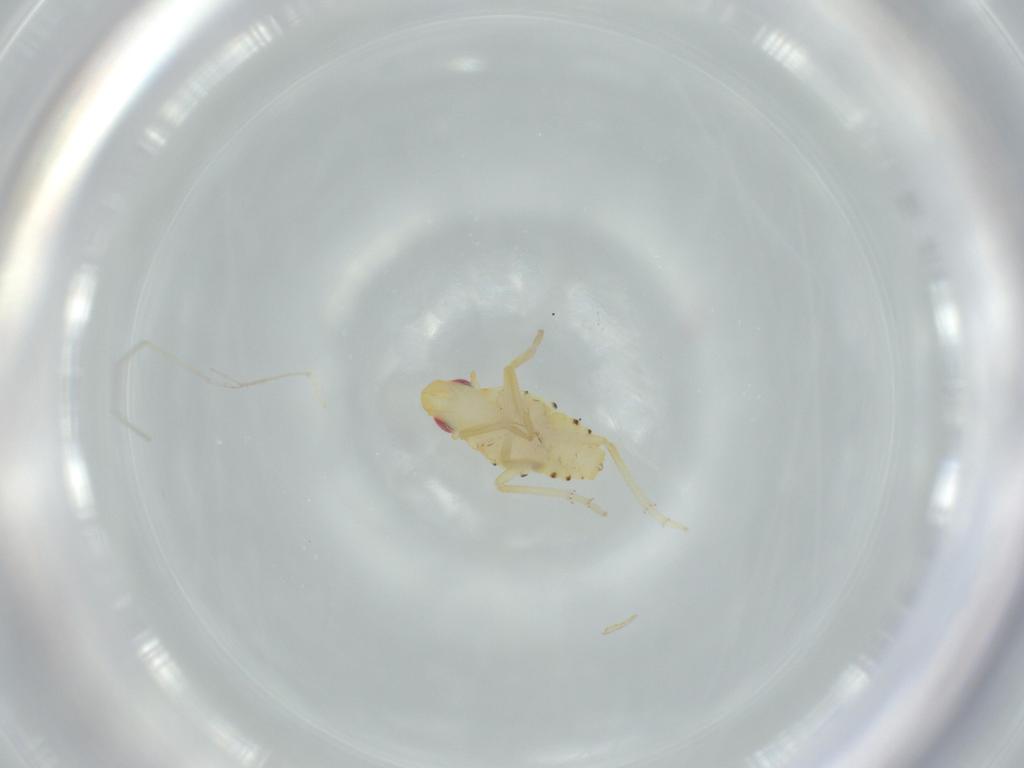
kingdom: Animalia
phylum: Arthropoda
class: Insecta
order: Hemiptera
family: Tropiduchidae
